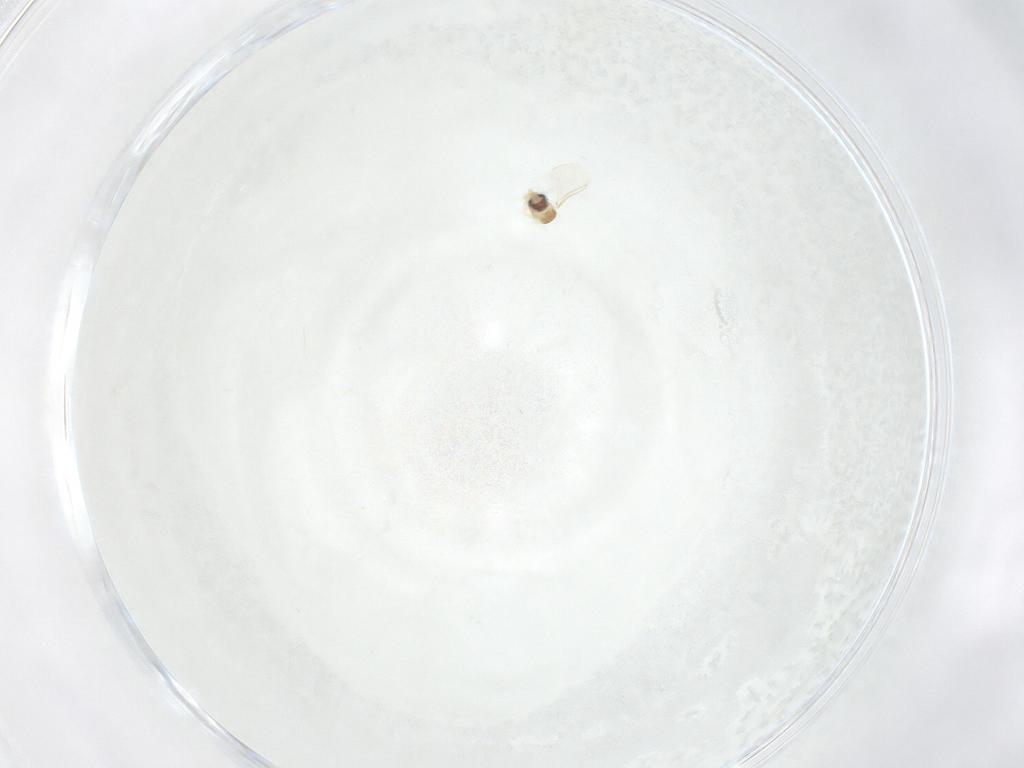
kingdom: Animalia
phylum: Arthropoda
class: Insecta
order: Diptera
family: Cecidomyiidae
